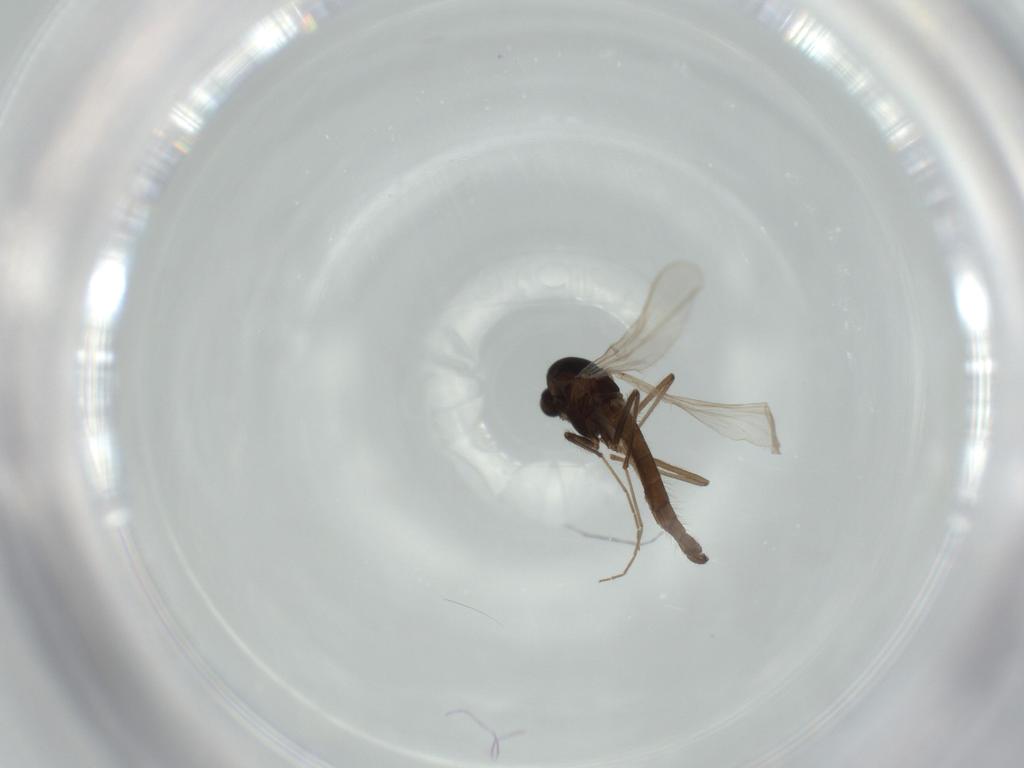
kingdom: Animalia
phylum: Arthropoda
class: Insecta
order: Diptera
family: Chironomidae
